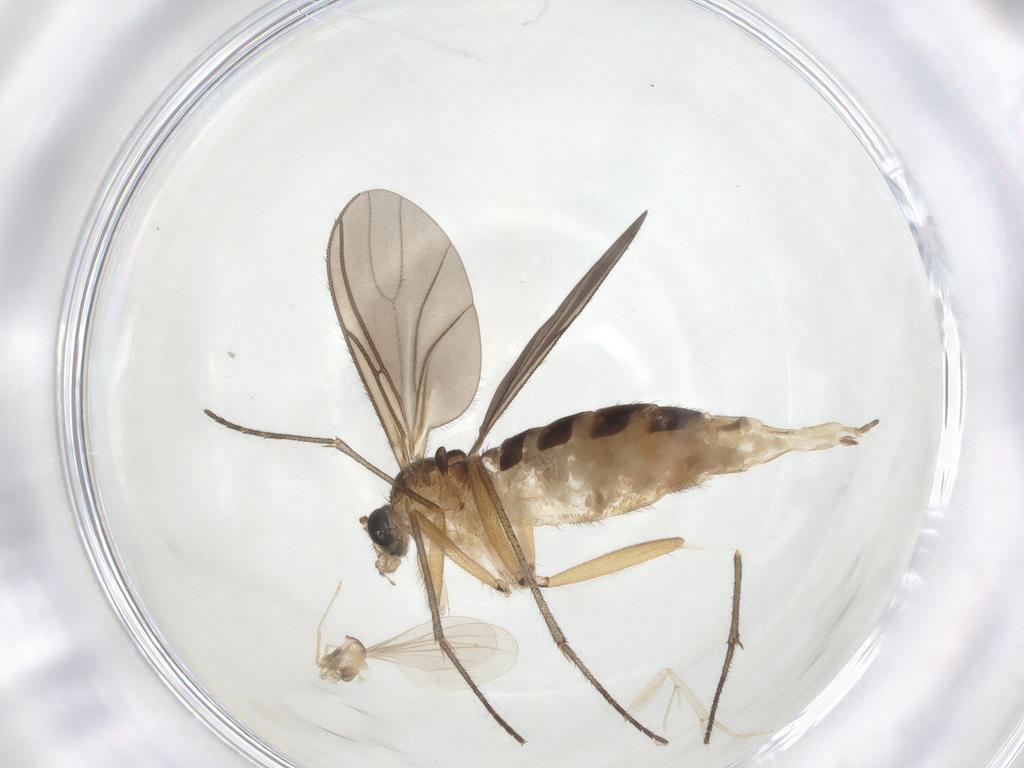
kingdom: Animalia
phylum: Arthropoda
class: Insecta
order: Diptera
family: Sciaridae
